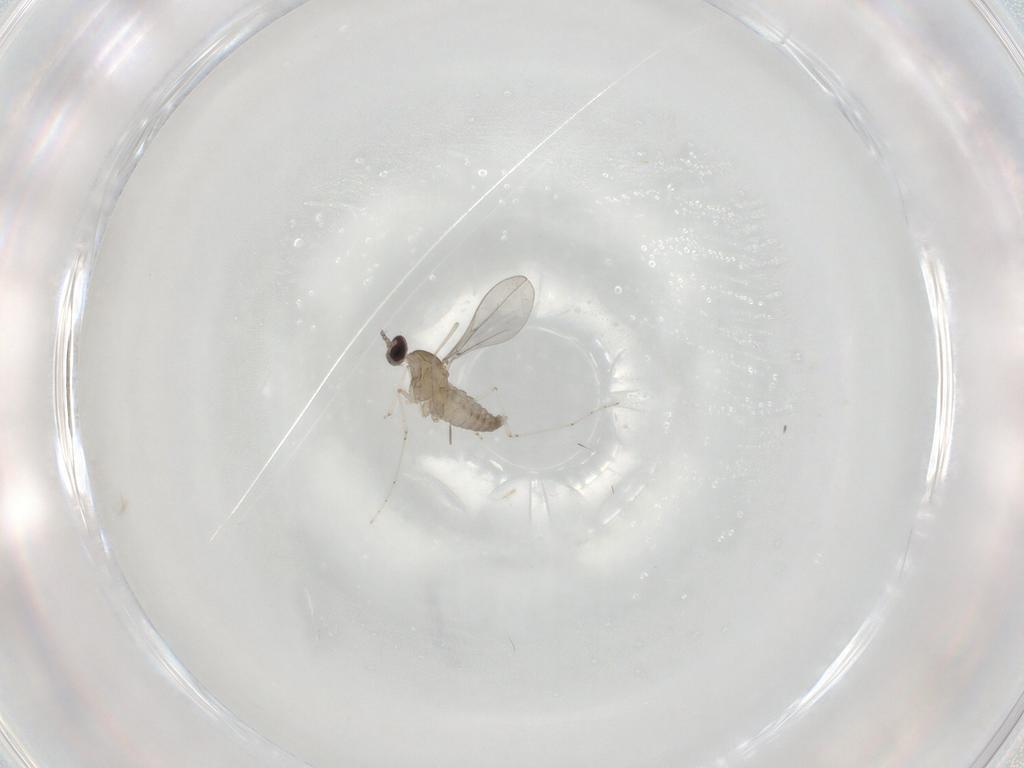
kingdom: Animalia
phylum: Arthropoda
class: Insecta
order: Diptera
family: Cecidomyiidae
